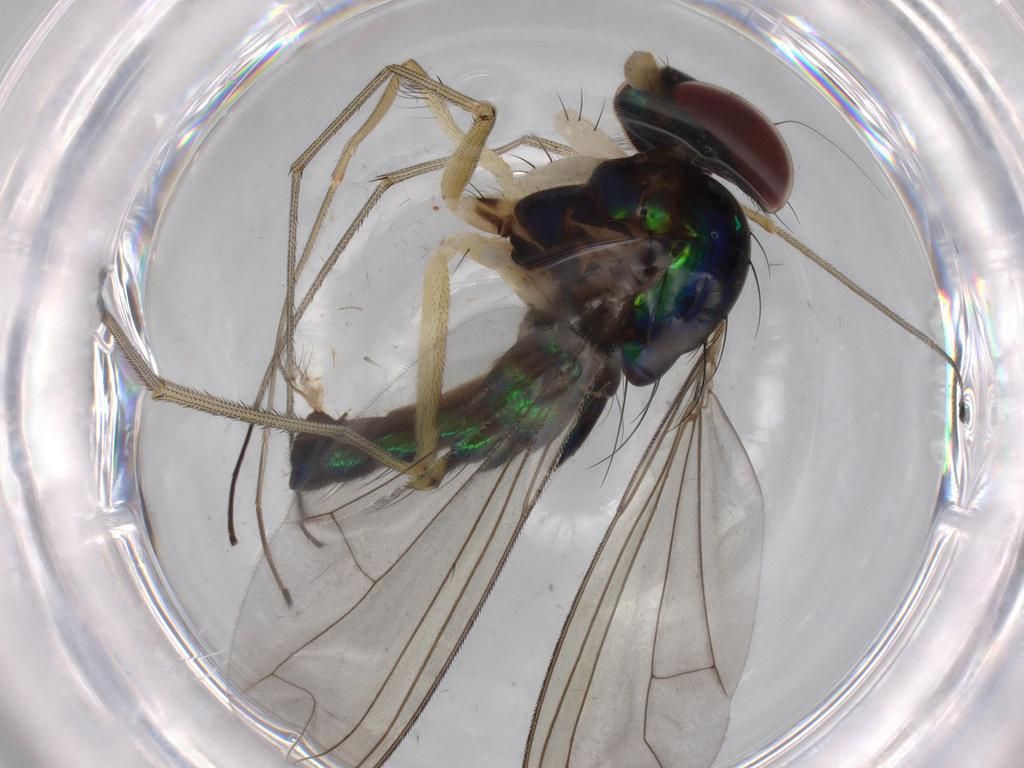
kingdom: Animalia
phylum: Arthropoda
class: Insecta
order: Diptera
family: Dolichopodidae
